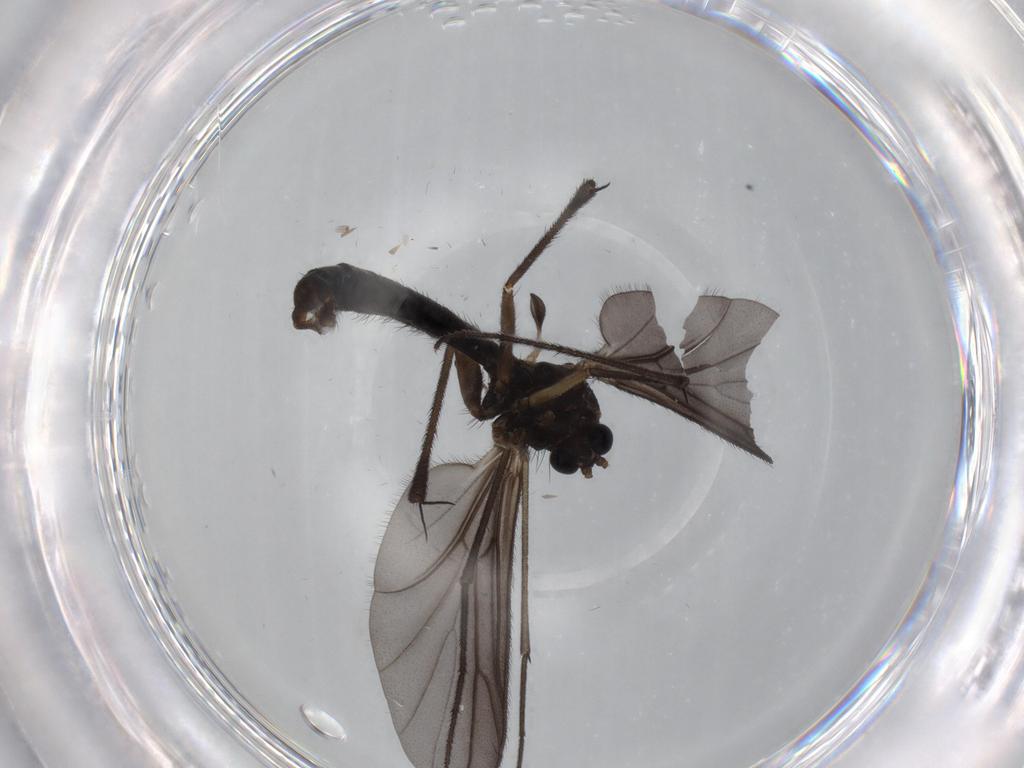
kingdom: Animalia
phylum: Arthropoda
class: Insecta
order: Diptera
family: Ditomyiidae
